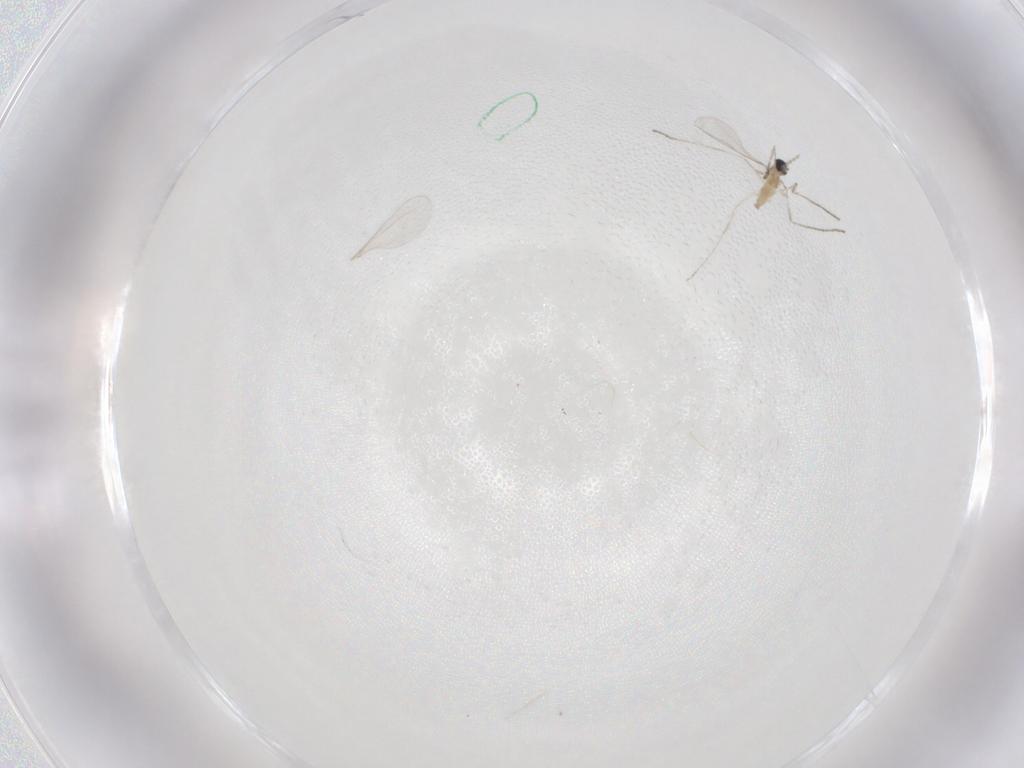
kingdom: Animalia
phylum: Arthropoda
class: Insecta
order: Diptera
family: Cecidomyiidae
